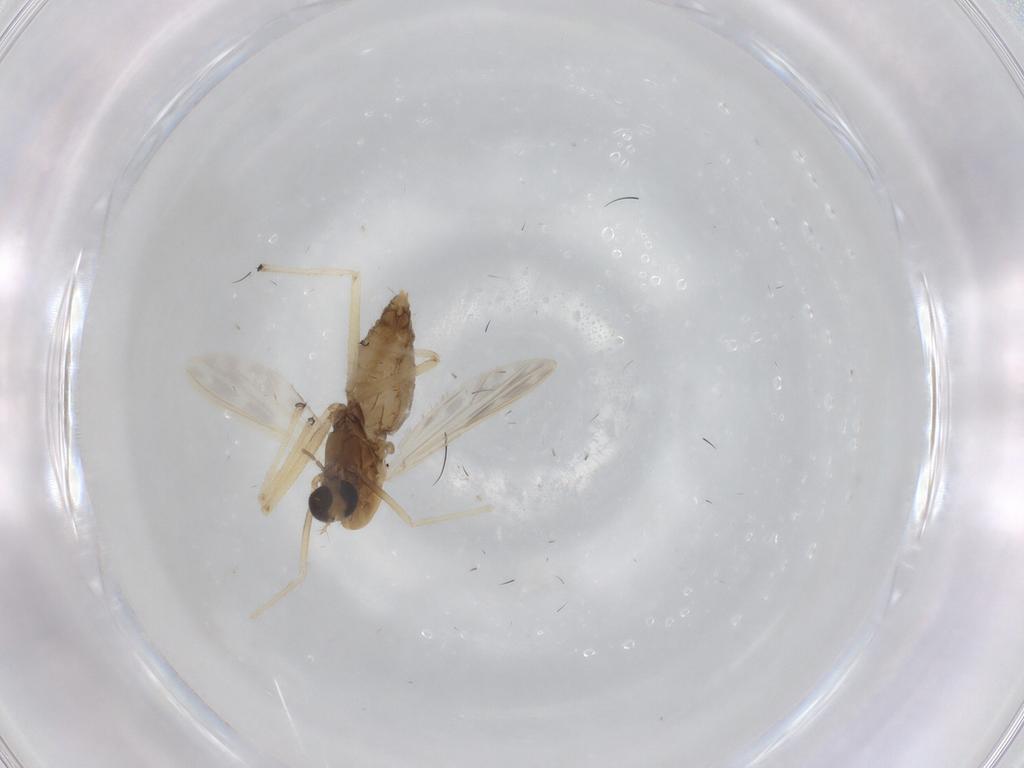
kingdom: Animalia
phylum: Arthropoda
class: Insecta
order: Diptera
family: Drosophilidae
